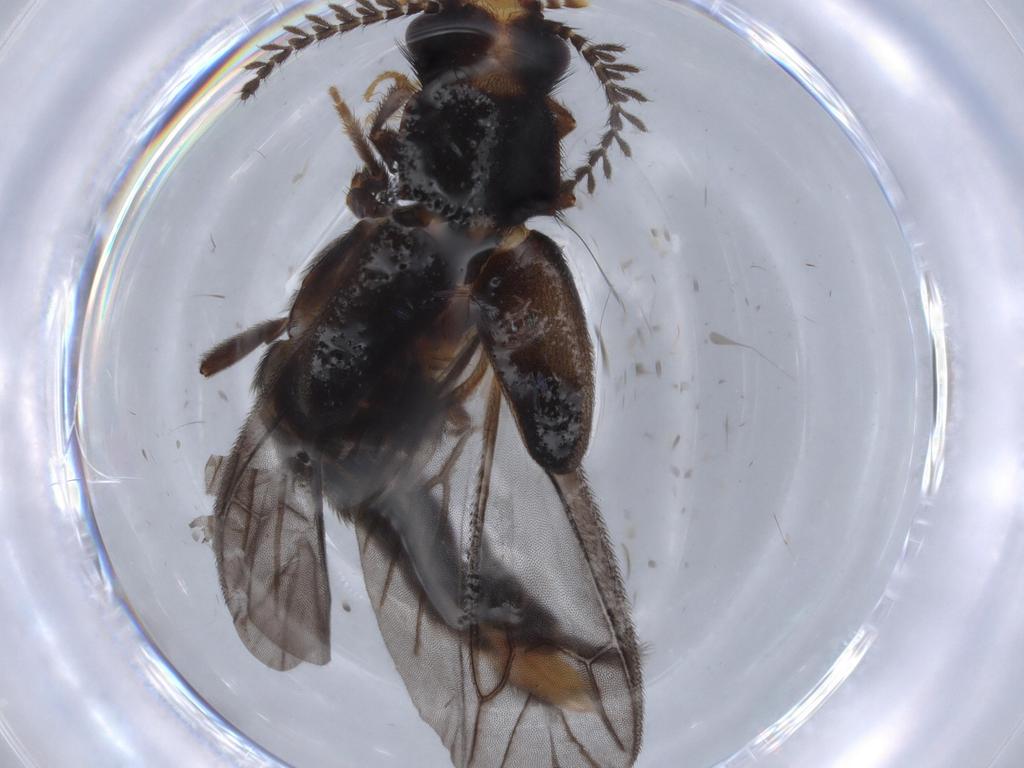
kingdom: Animalia
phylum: Arthropoda
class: Insecta
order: Coleoptera
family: Phengodidae
